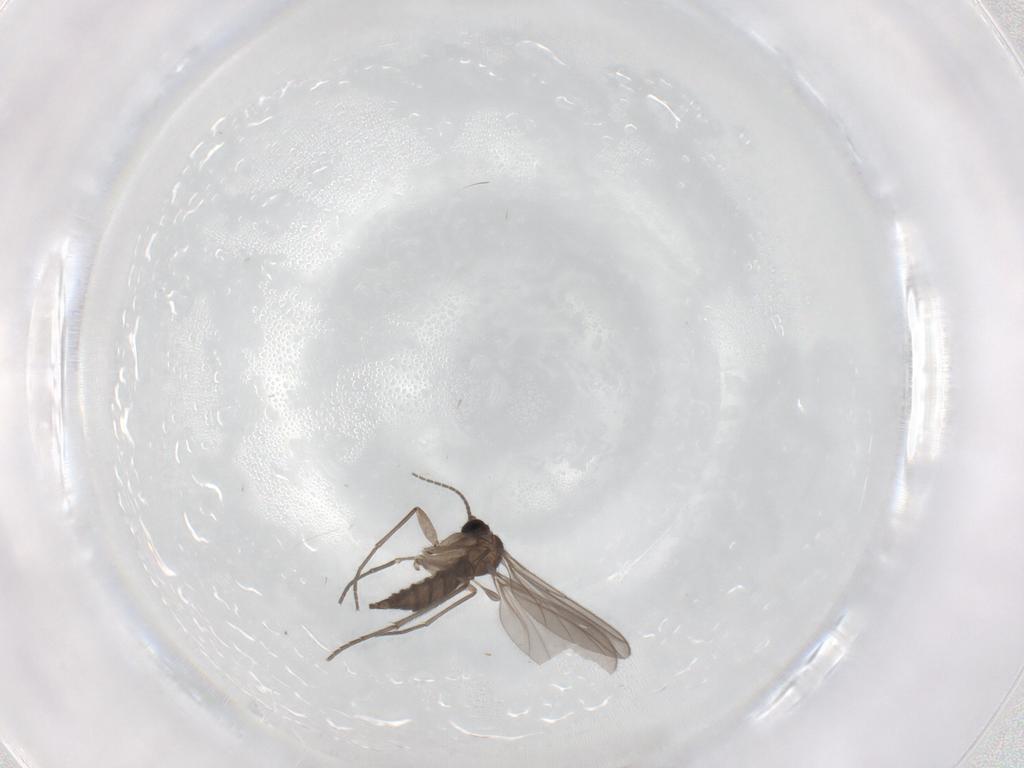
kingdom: Animalia
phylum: Arthropoda
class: Insecta
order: Diptera
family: Sciaridae
